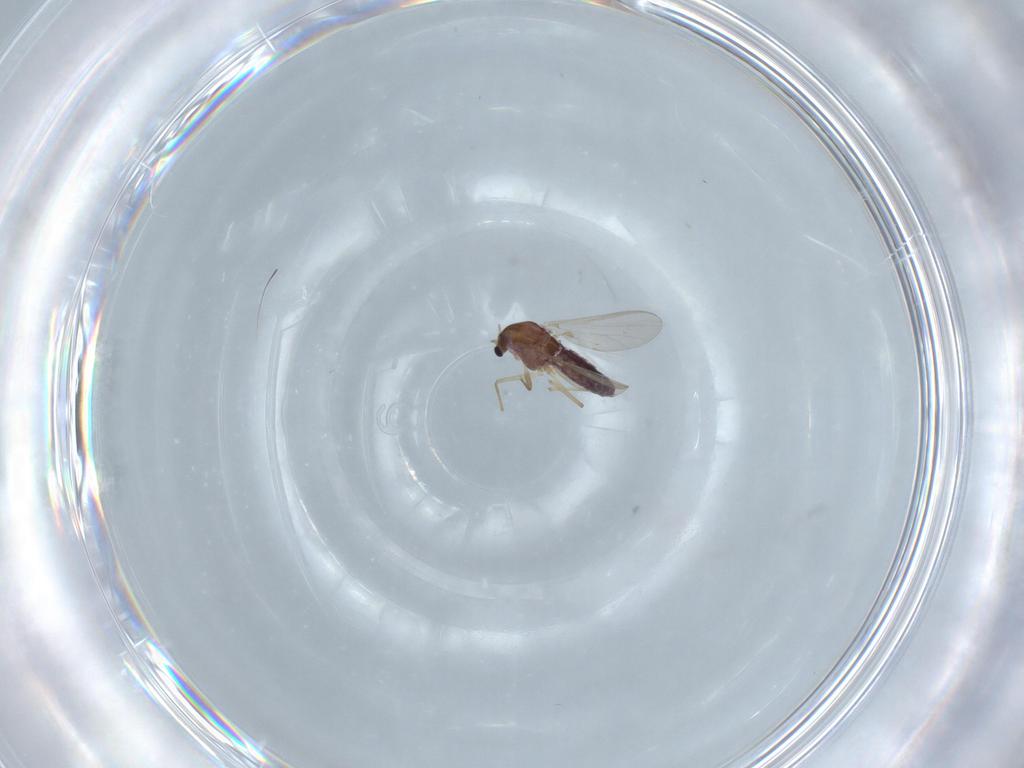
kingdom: Animalia
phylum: Arthropoda
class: Insecta
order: Diptera
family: Chironomidae
